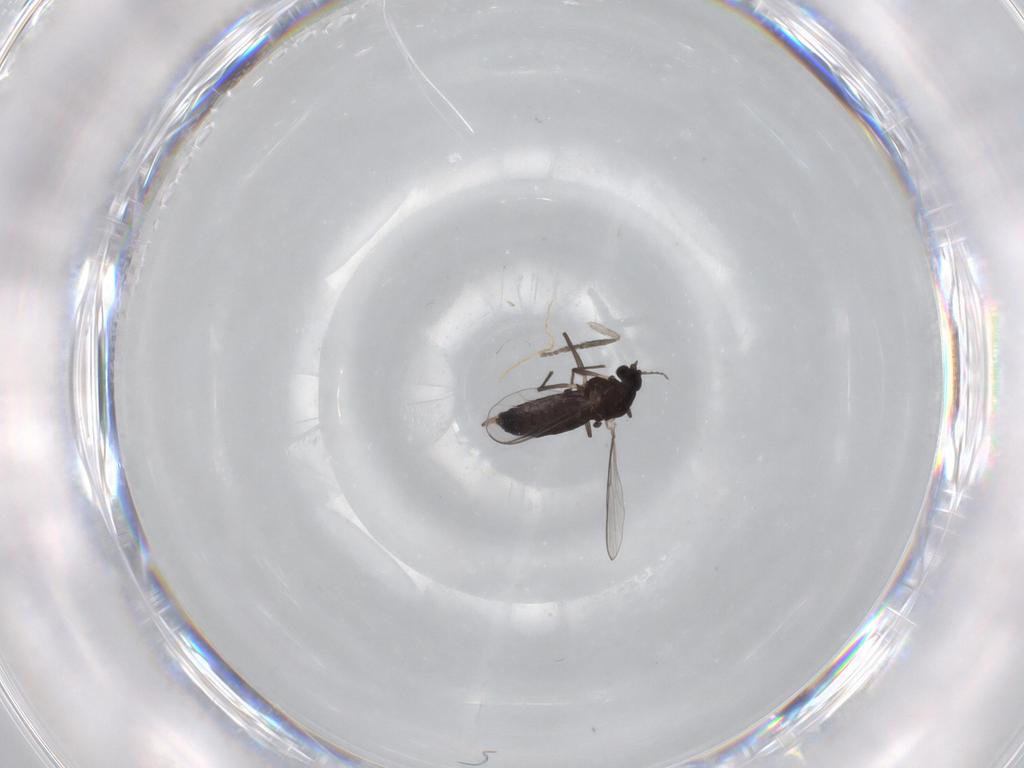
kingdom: Animalia
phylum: Arthropoda
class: Insecta
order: Diptera
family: Chironomidae
